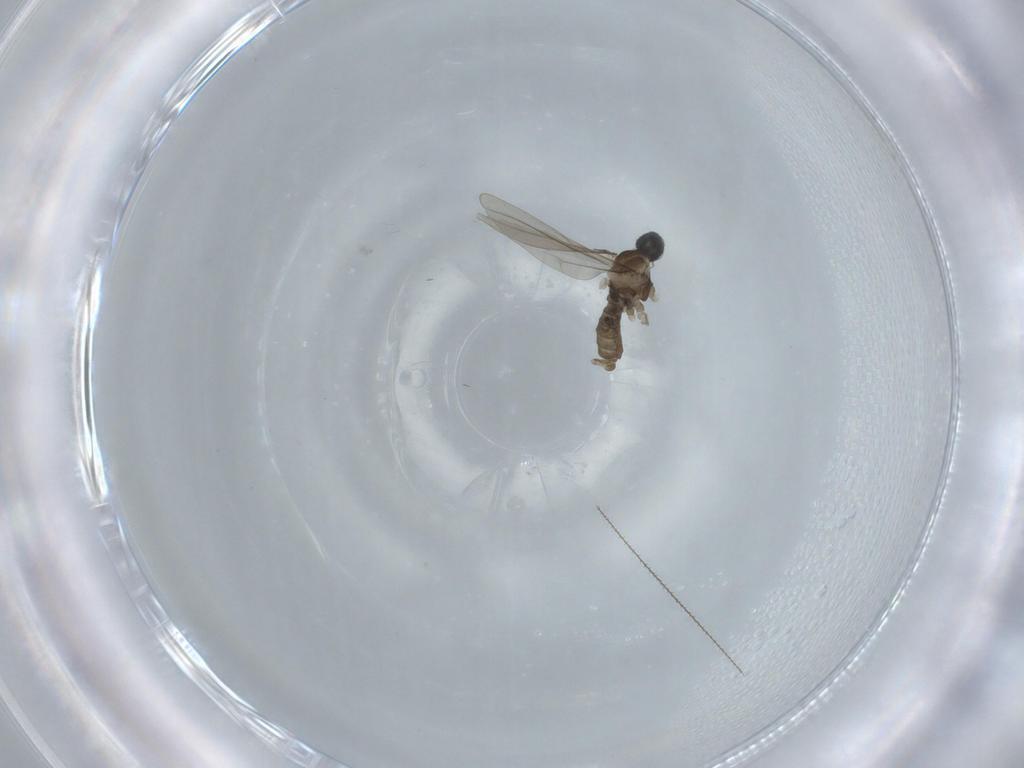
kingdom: Animalia
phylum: Arthropoda
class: Insecta
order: Diptera
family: Cecidomyiidae
